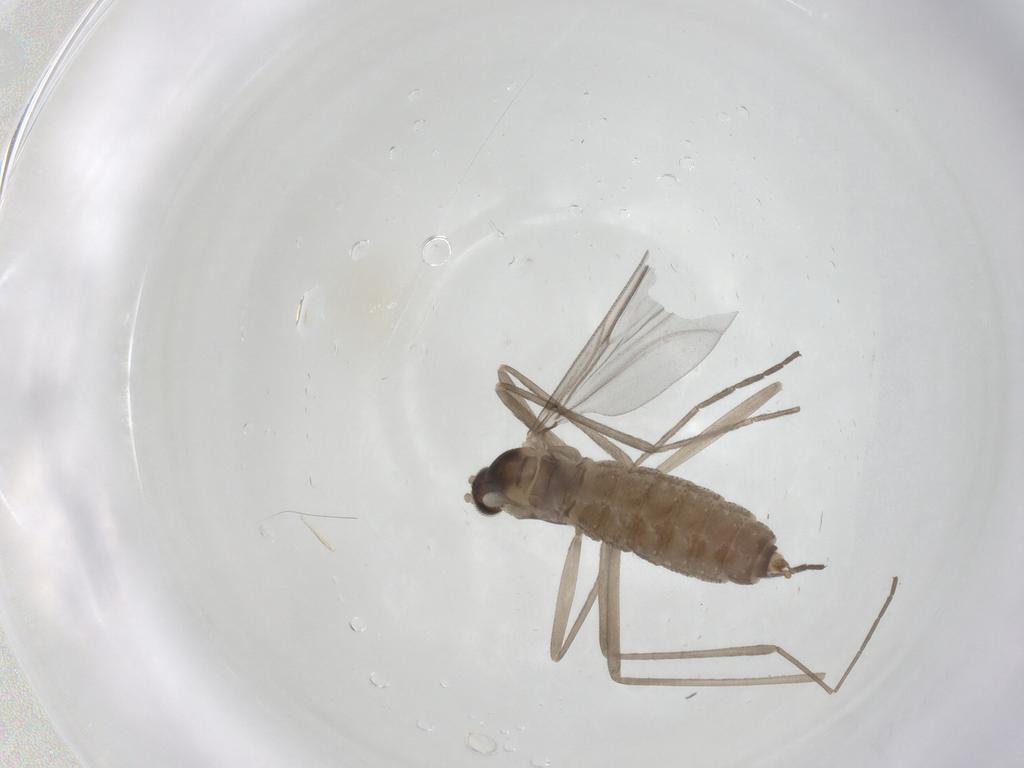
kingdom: Animalia
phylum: Arthropoda
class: Insecta
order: Diptera
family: Cecidomyiidae
